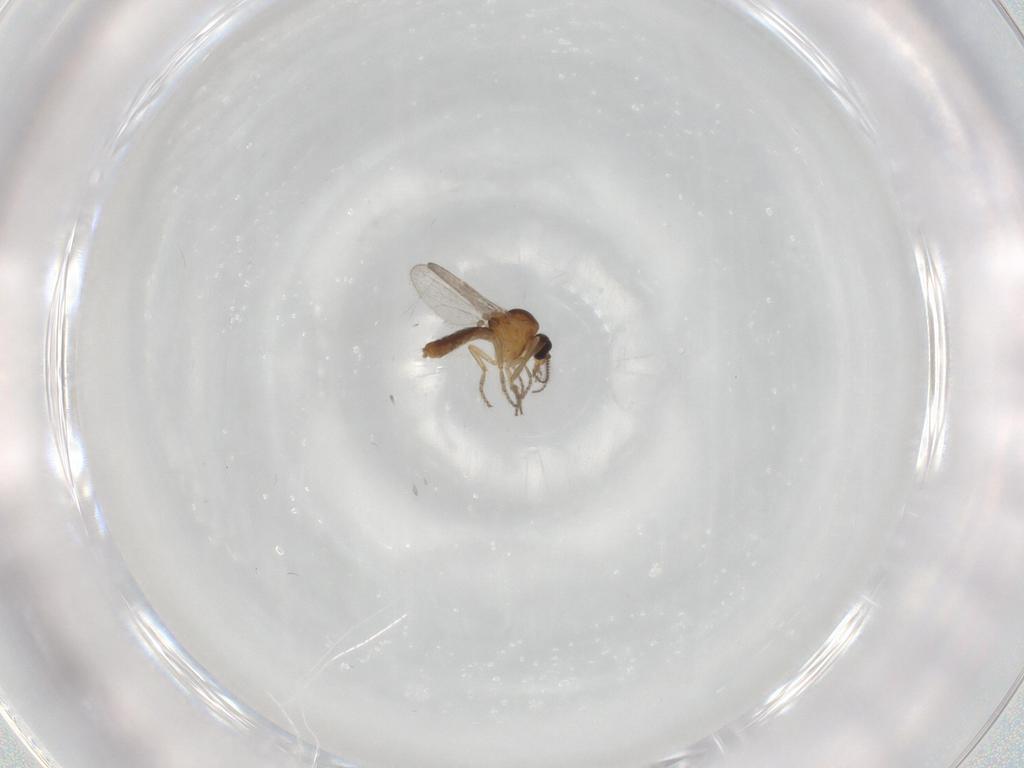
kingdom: Animalia
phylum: Arthropoda
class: Insecta
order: Diptera
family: Ceratopogonidae
